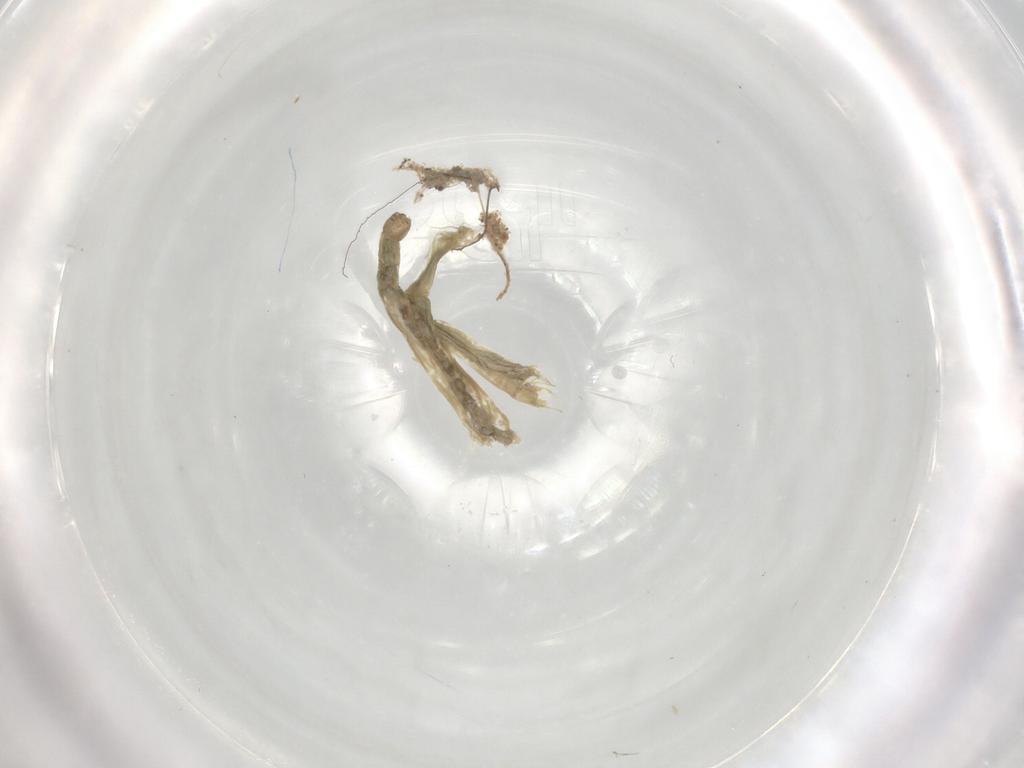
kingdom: Animalia
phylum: Arthropoda
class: Insecta
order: Diptera
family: Chironomidae
